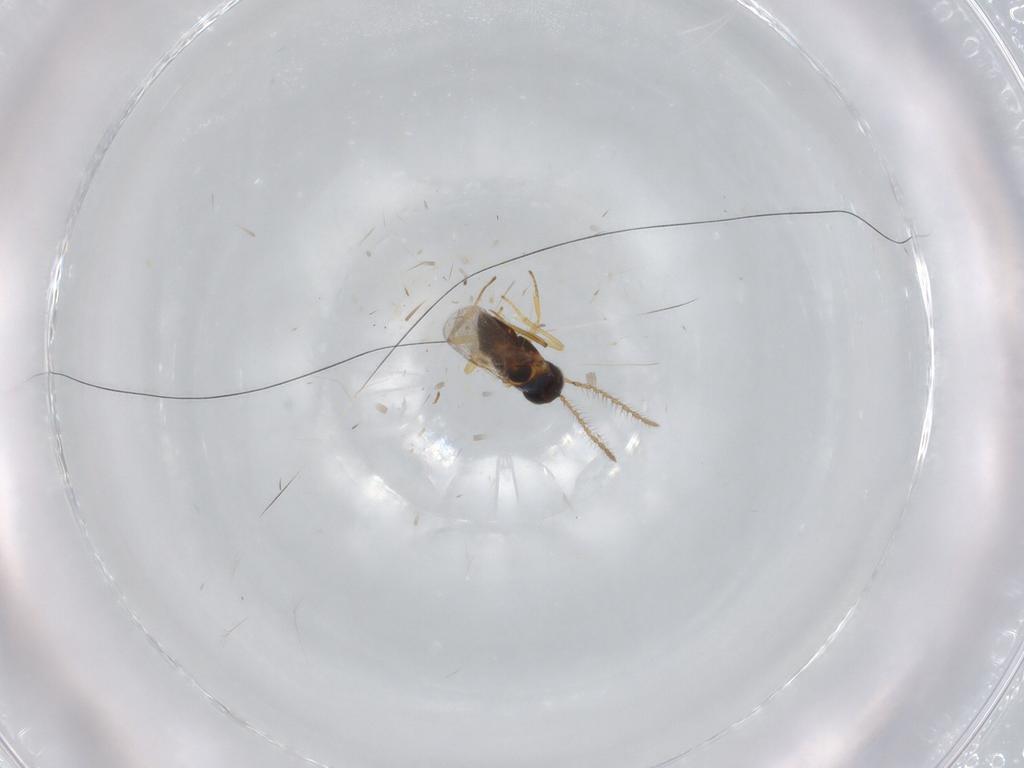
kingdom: Animalia
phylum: Arthropoda
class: Insecta
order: Hymenoptera
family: Encyrtidae
